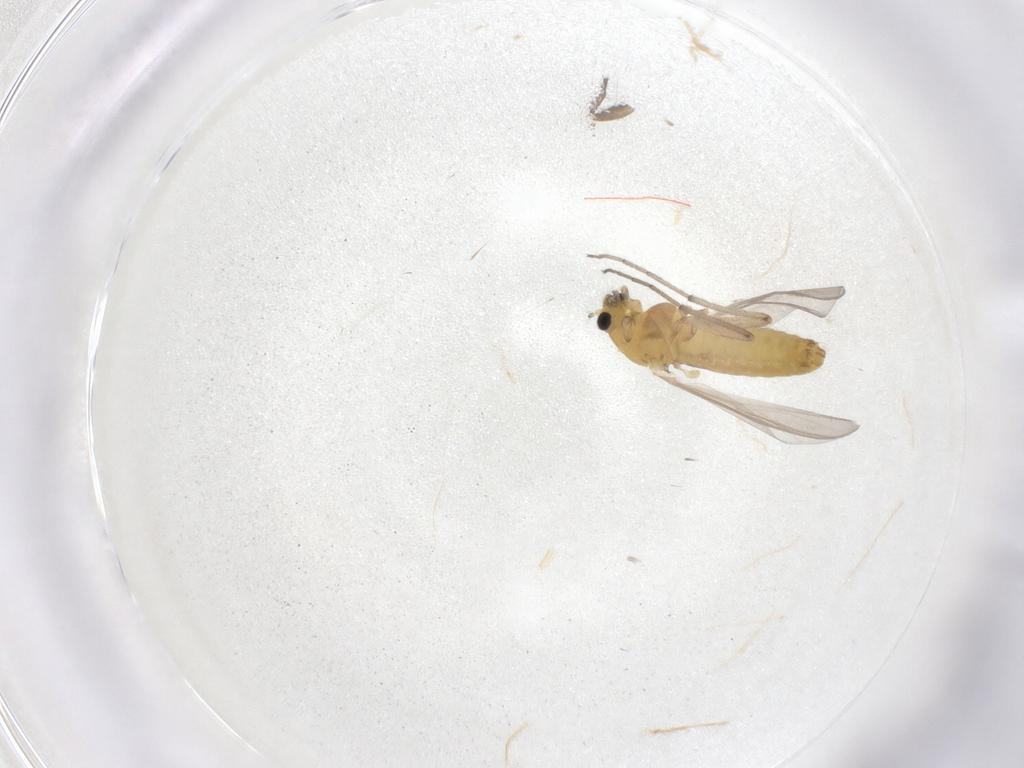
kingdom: Animalia
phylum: Arthropoda
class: Insecta
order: Diptera
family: Chironomidae
